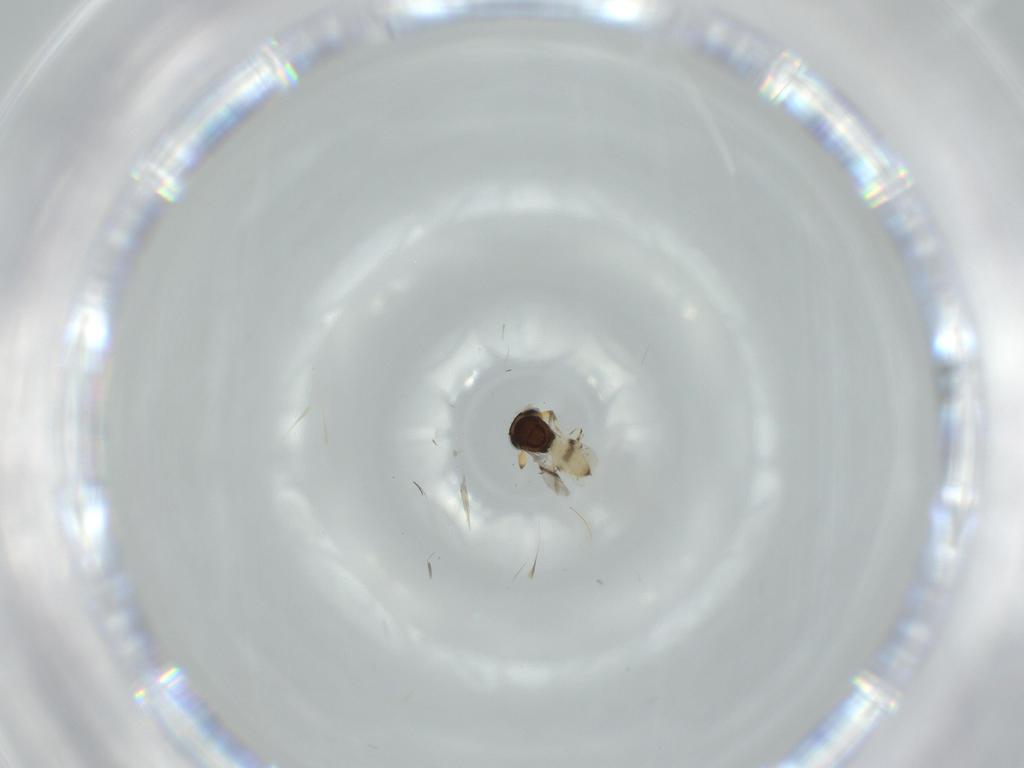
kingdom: Animalia
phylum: Arthropoda
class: Insecta
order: Hymenoptera
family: Scelionidae
